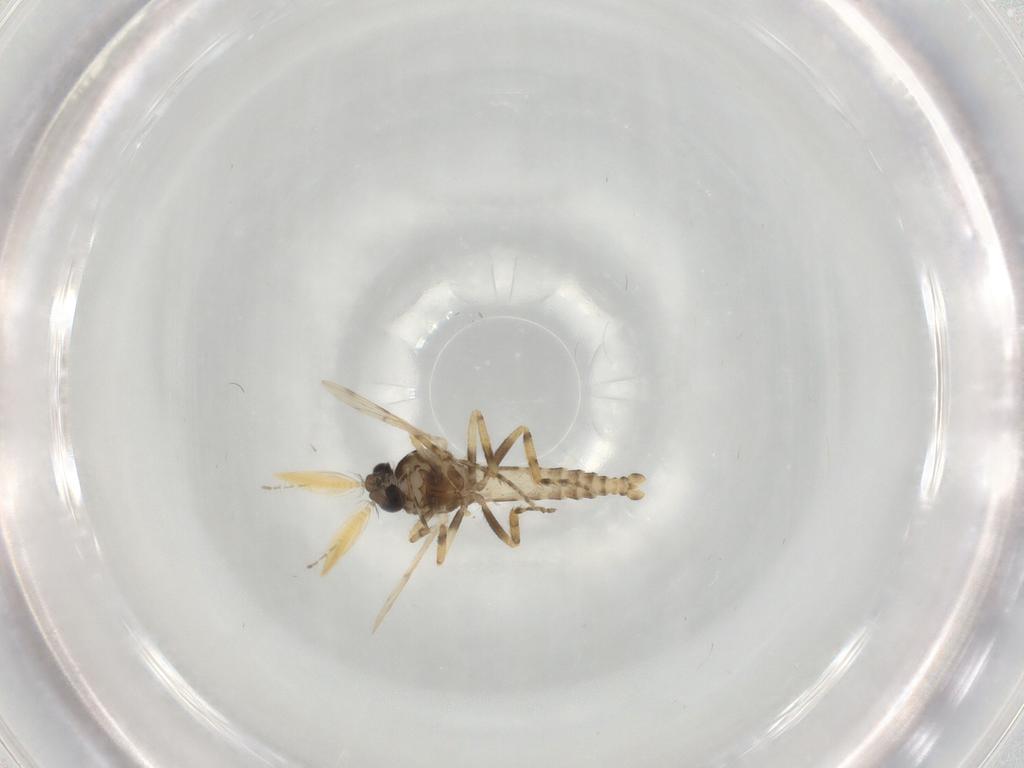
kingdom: Animalia
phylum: Arthropoda
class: Insecta
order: Diptera
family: Ceratopogonidae
